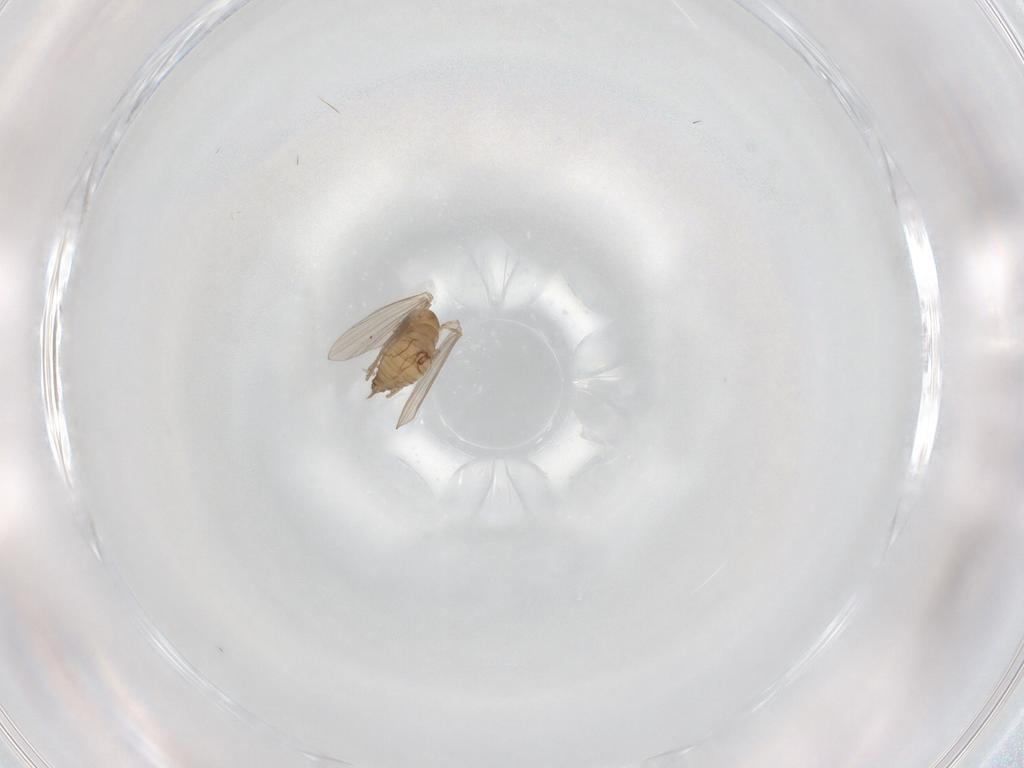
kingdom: Animalia
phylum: Arthropoda
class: Insecta
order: Diptera
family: Psychodidae
